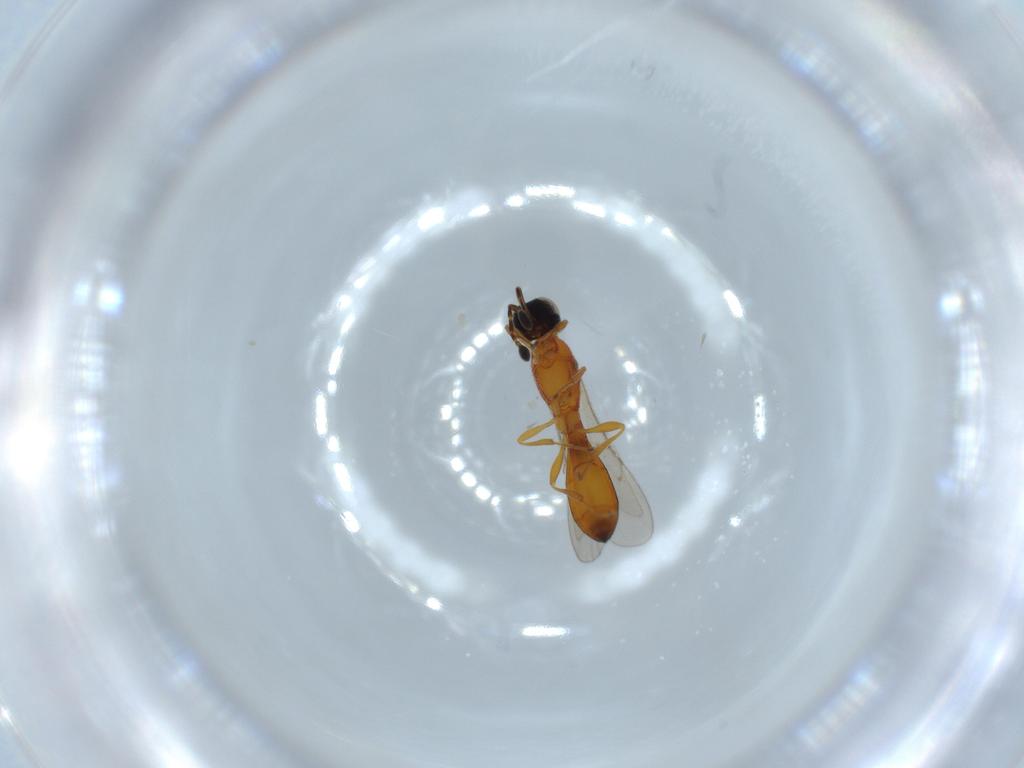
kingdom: Animalia
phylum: Arthropoda
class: Insecta
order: Hymenoptera
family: Scelionidae
